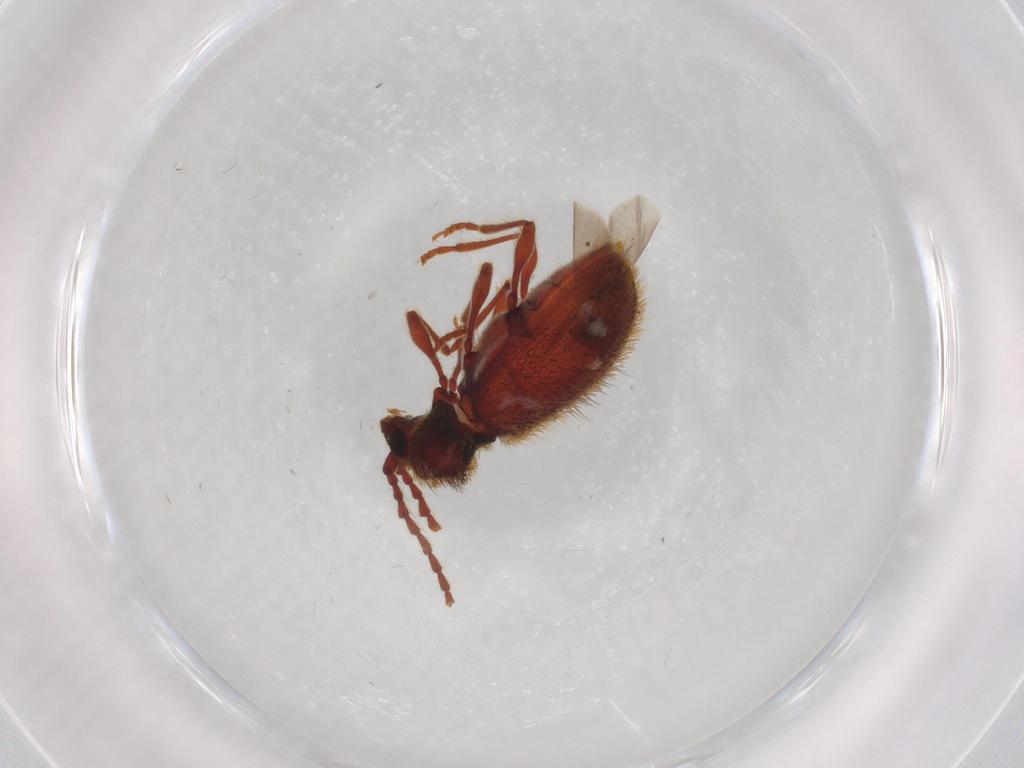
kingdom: Animalia
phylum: Arthropoda
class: Insecta
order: Coleoptera
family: Ptinidae
